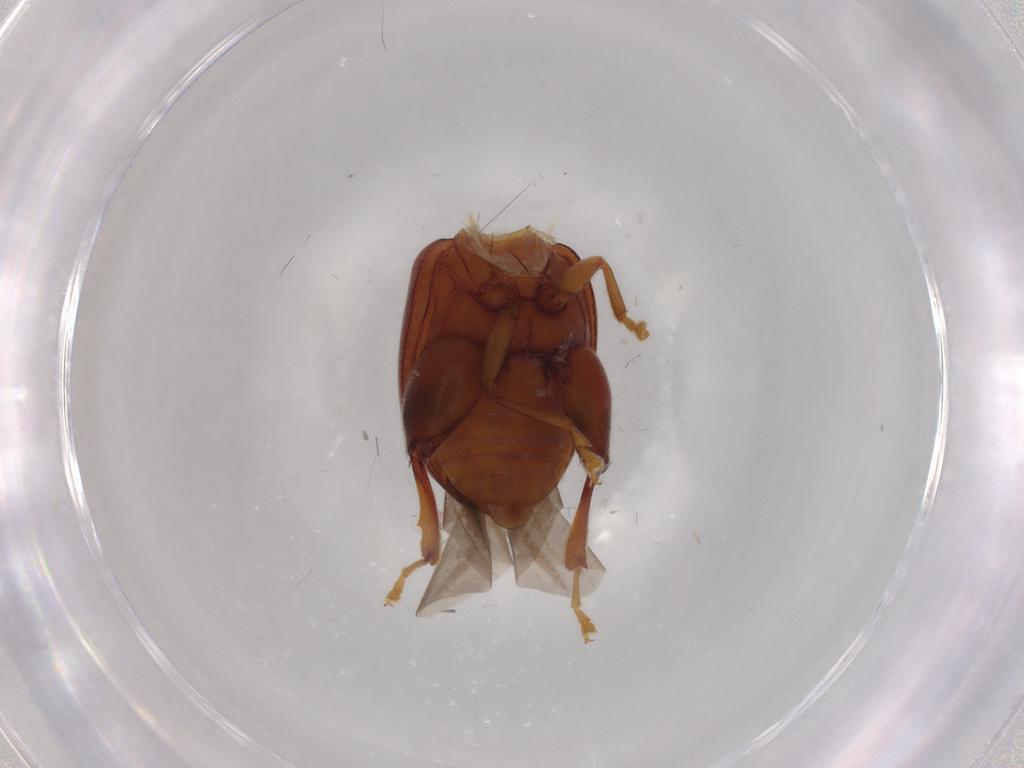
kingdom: Animalia
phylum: Arthropoda
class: Insecta
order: Coleoptera
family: Chrysomelidae
